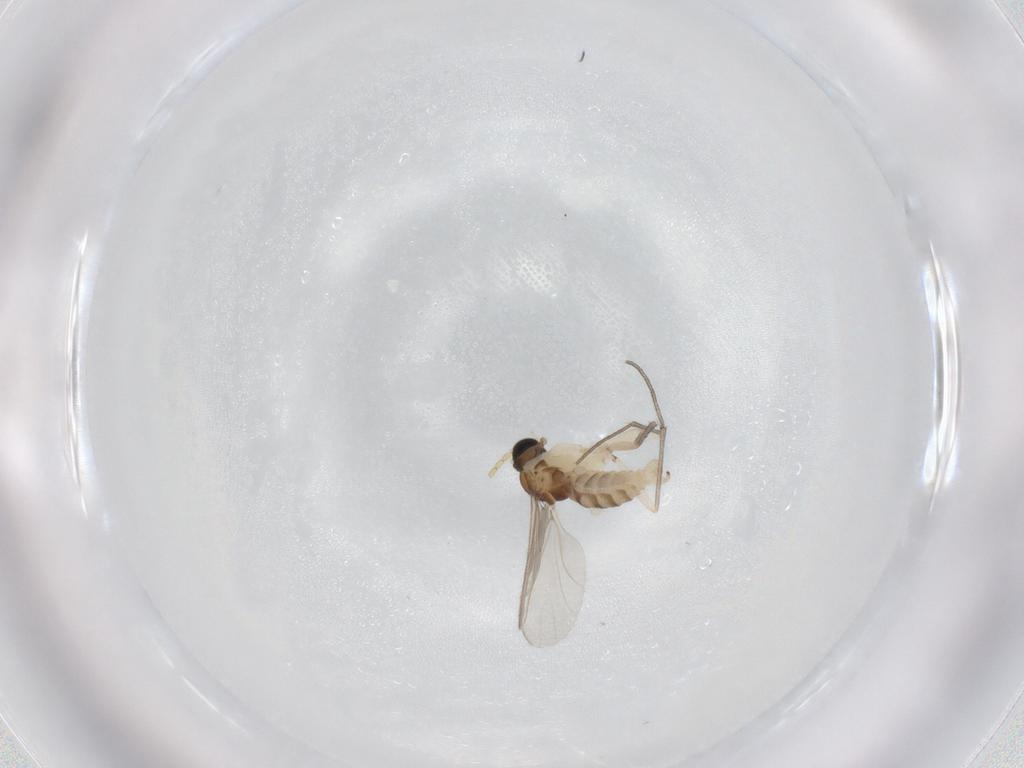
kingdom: Animalia
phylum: Arthropoda
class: Insecta
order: Diptera
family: Sciaridae
